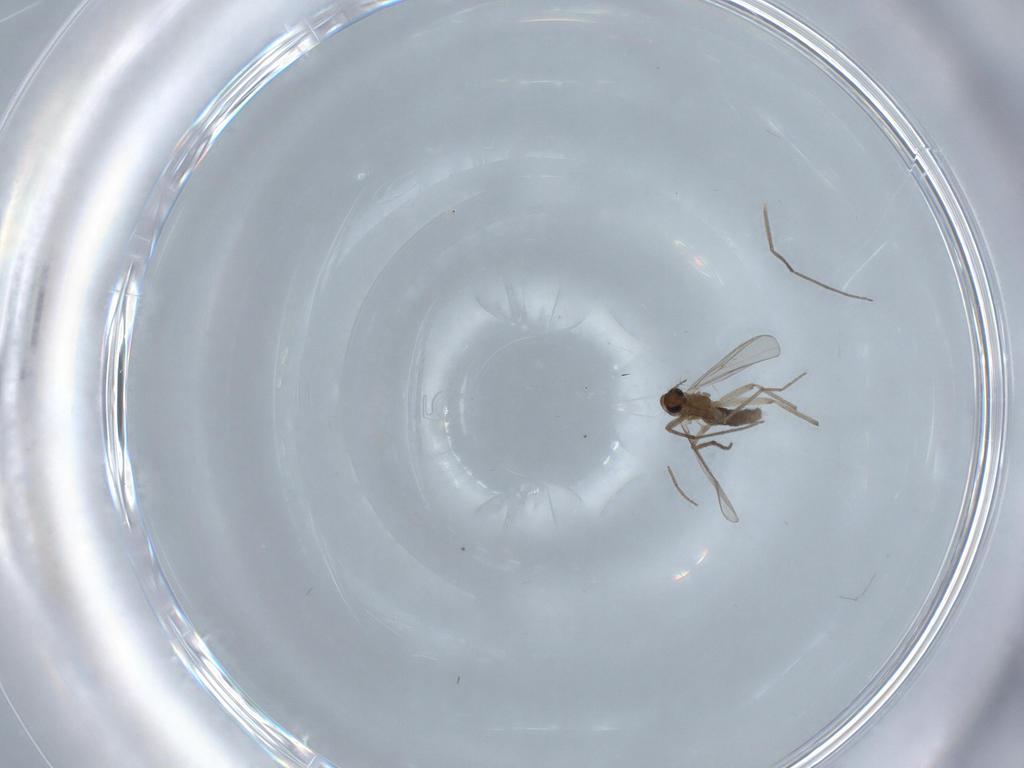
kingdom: Animalia
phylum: Arthropoda
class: Insecta
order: Diptera
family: Chironomidae
